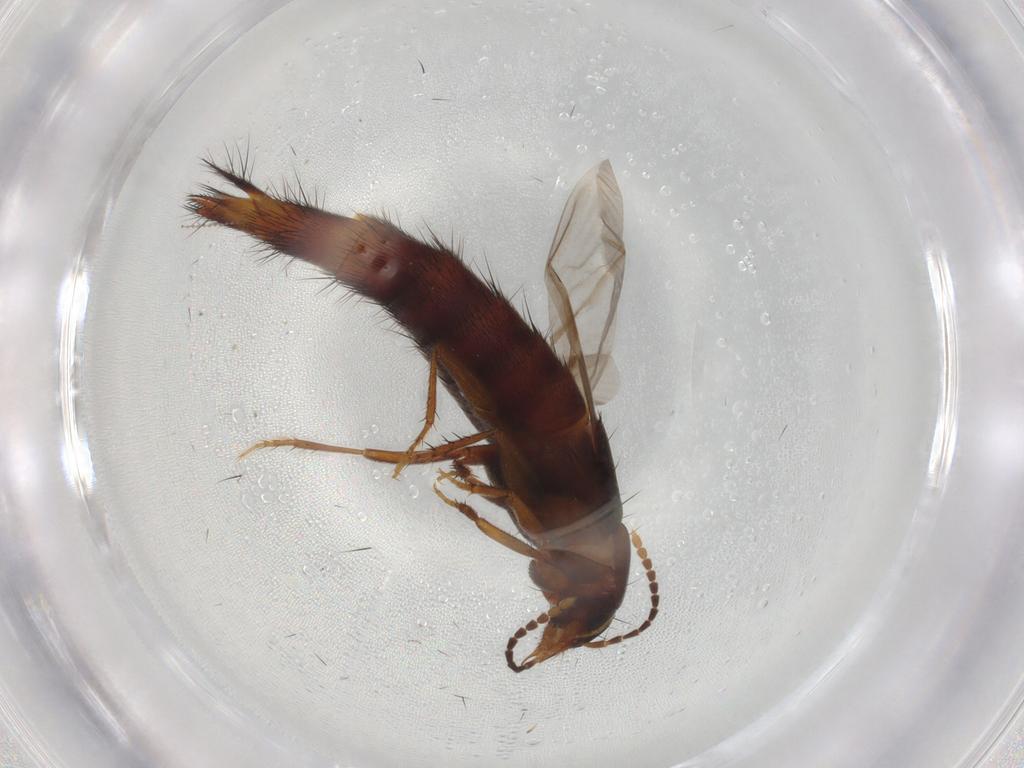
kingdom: Animalia
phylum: Arthropoda
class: Insecta
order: Coleoptera
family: Staphylinidae
